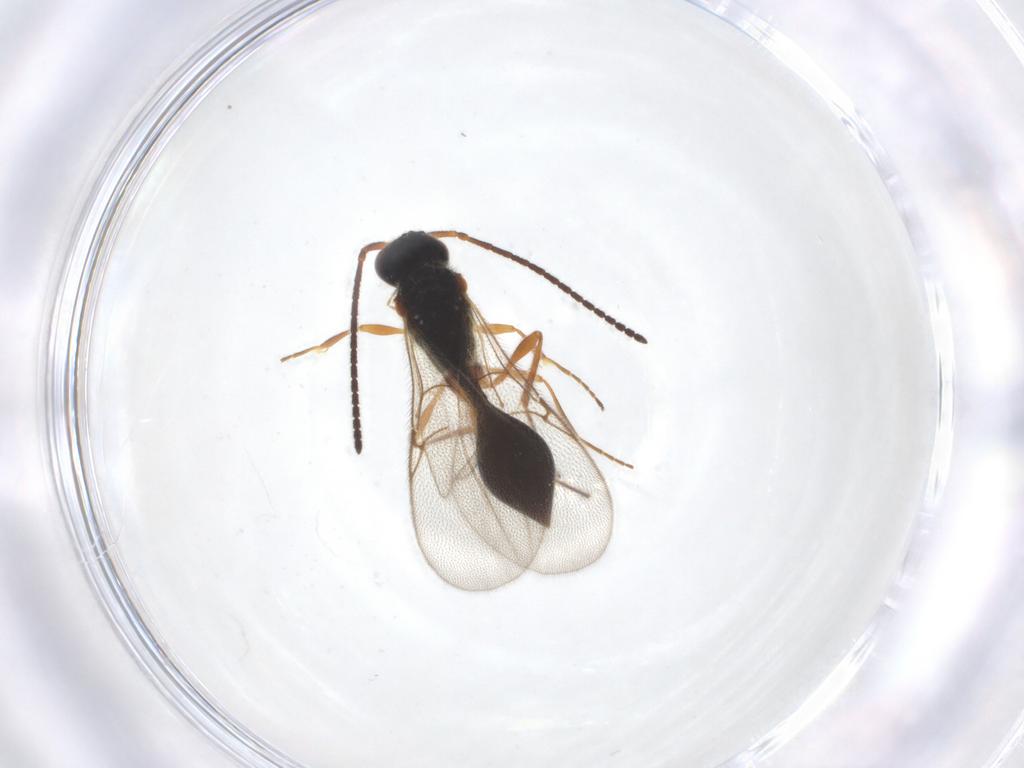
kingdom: Animalia
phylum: Arthropoda
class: Insecta
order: Hymenoptera
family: Diapriidae
